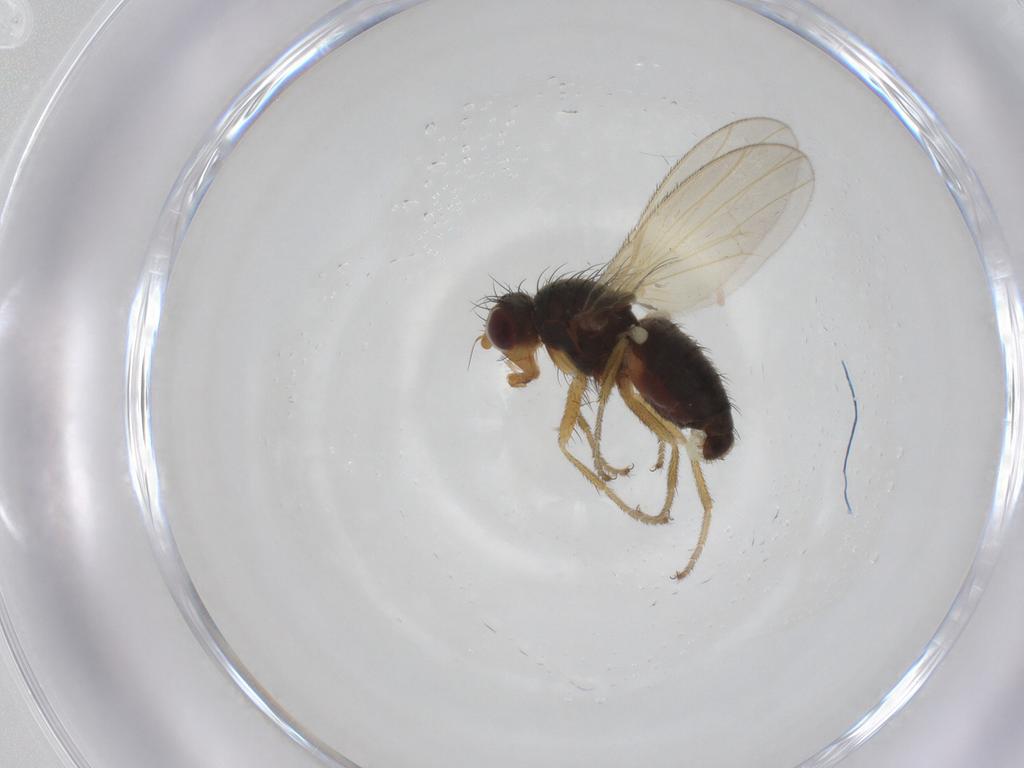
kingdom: Animalia
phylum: Arthropoda
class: Insecta
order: Diptera
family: Heleomyzidae
